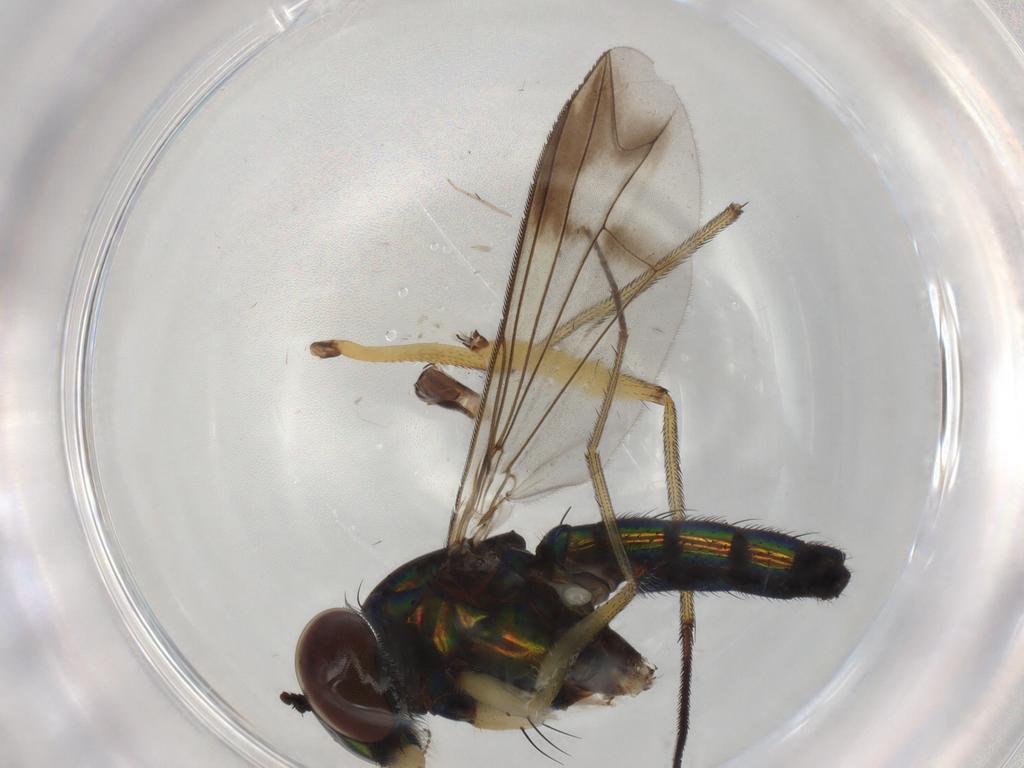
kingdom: Animalia
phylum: Arthropoda
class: Insecta
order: Diptera
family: Dolichopodidae
